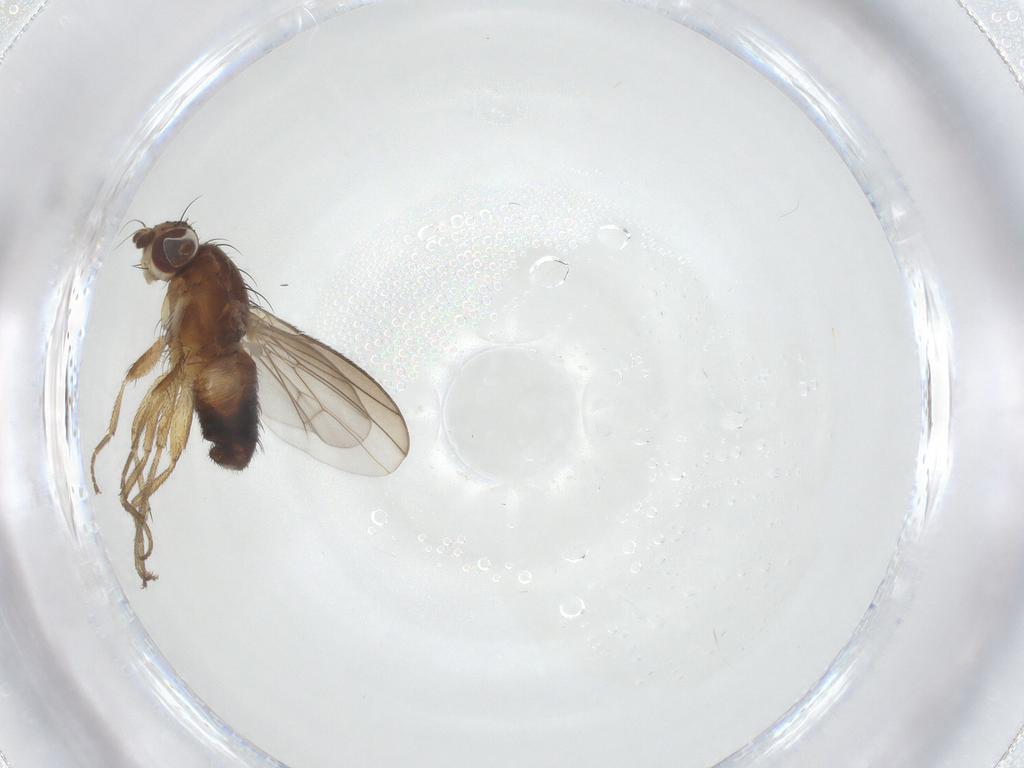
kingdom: Animalia
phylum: Arthropoda
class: Insecta
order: Diptera
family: Heleomyzidae
